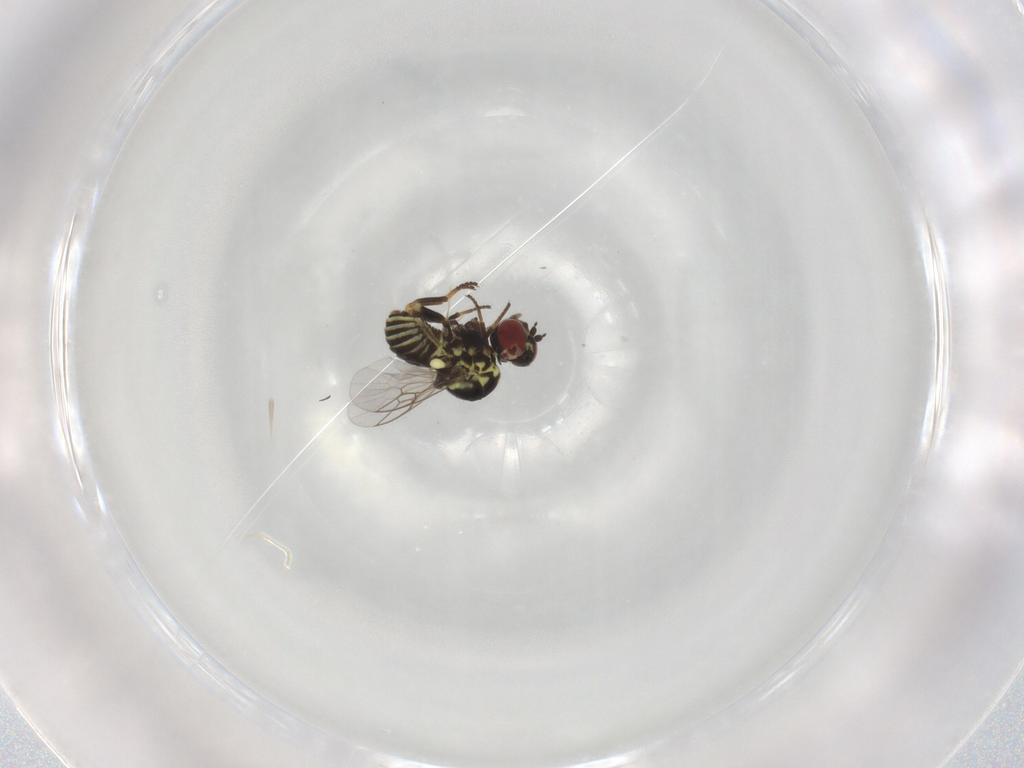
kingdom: Animalia
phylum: Arthropoda
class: Insecta
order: Diptera
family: Mythicomyiidae
